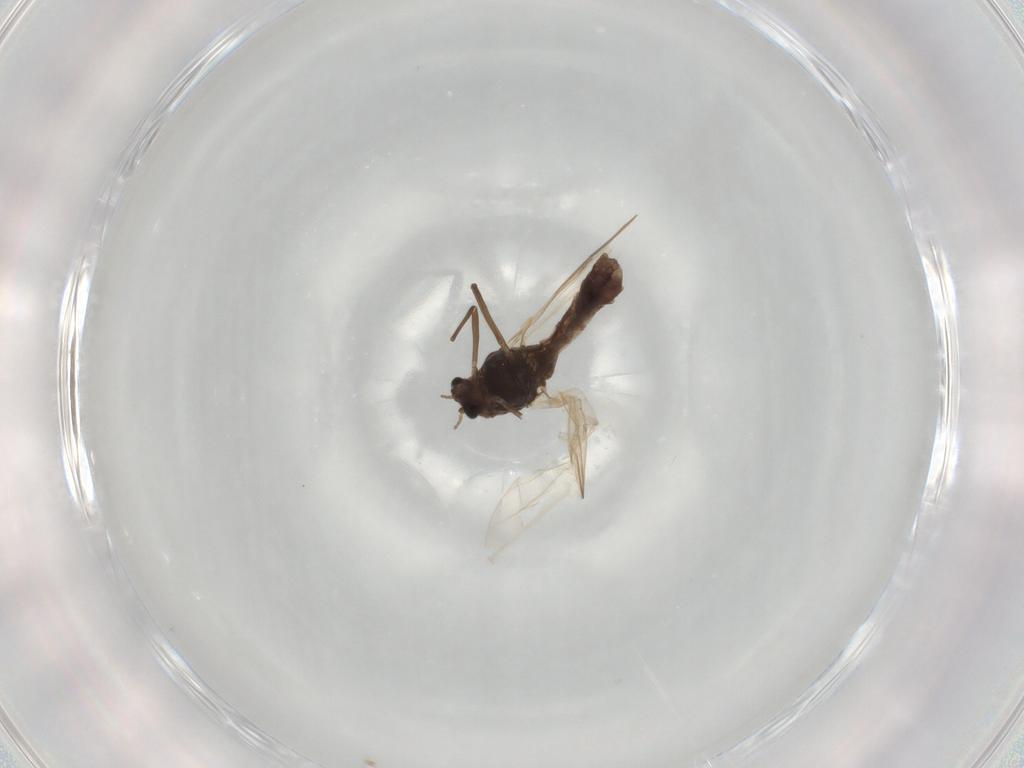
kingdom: Animalia
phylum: Arthropoda
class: Insecta
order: Diptera
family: Chironomidae
